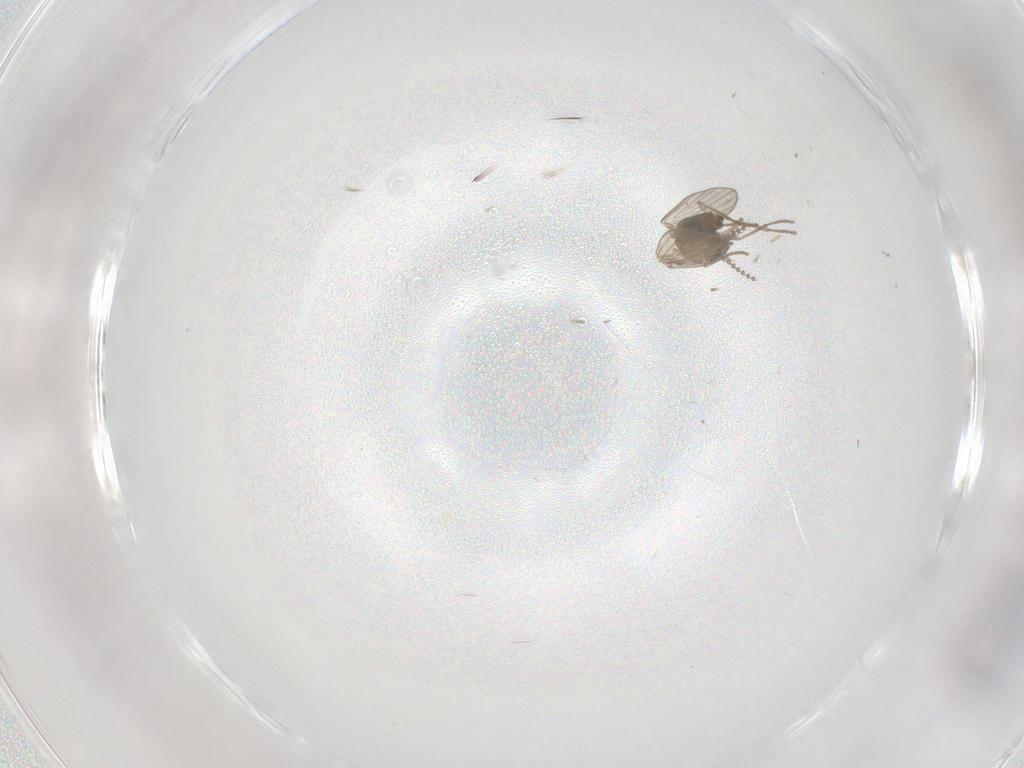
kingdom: Animalia
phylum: Arthropoda
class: Insecta
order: Diptera
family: Psychodidae
